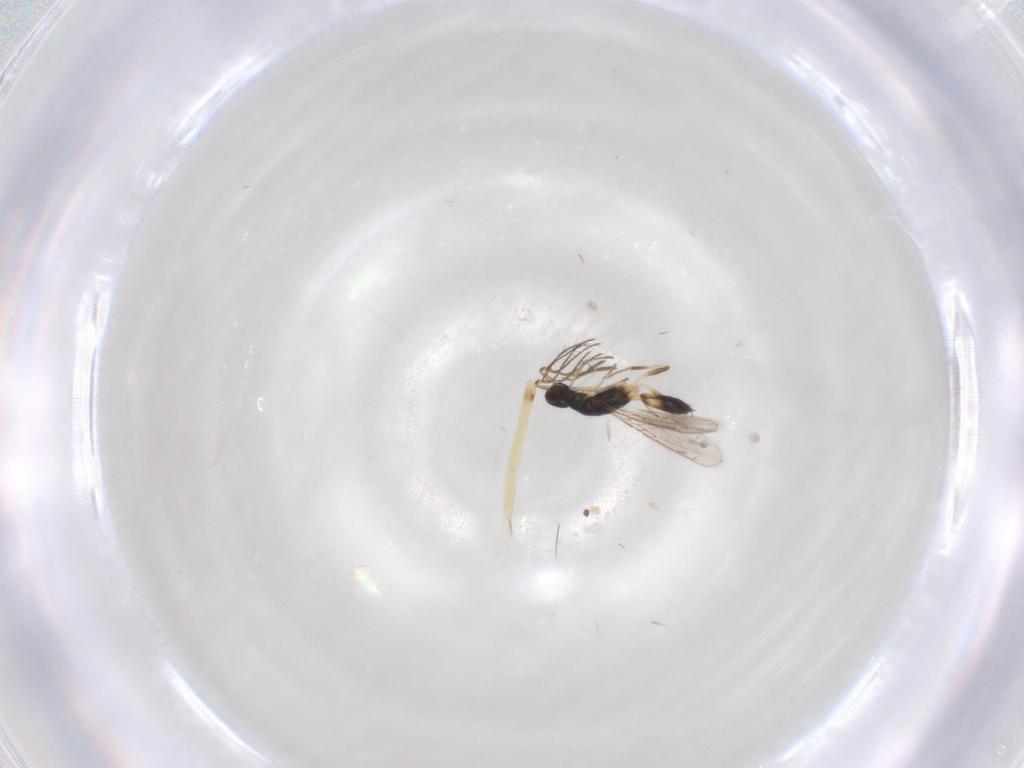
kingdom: Animalia
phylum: Arthropoda
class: Insecta
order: Hymenoptera
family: Eulophidae
